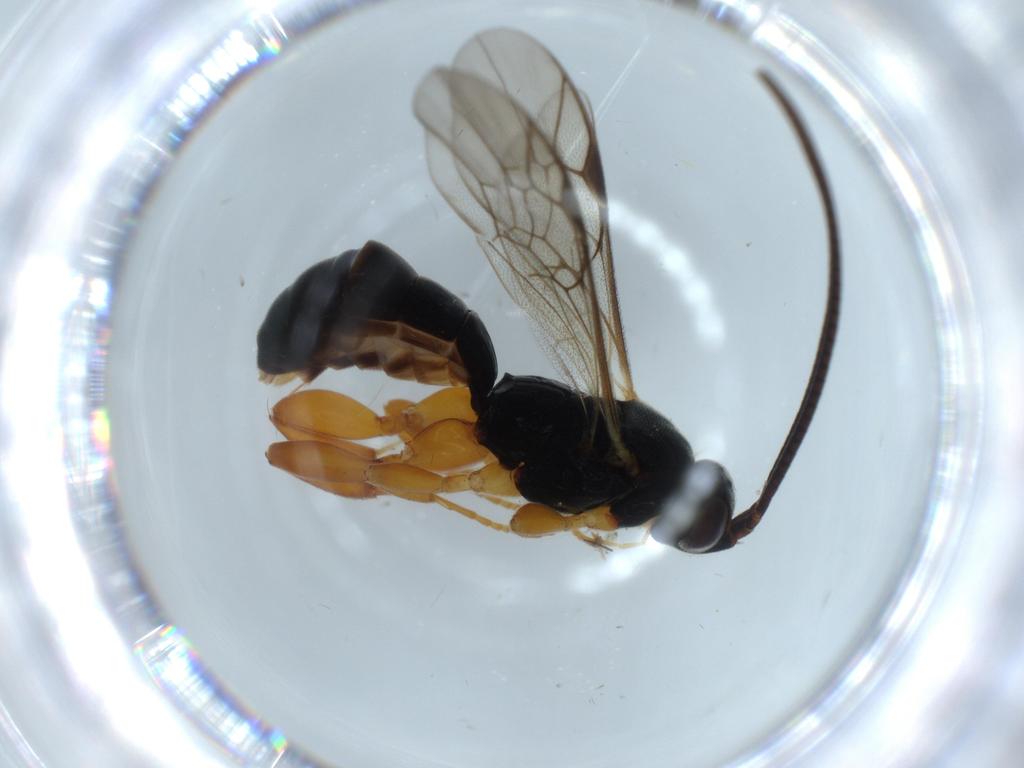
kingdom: Animalia
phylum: Arthropoda
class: Insecta
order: Hymenoptera
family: Ichneumonidae
